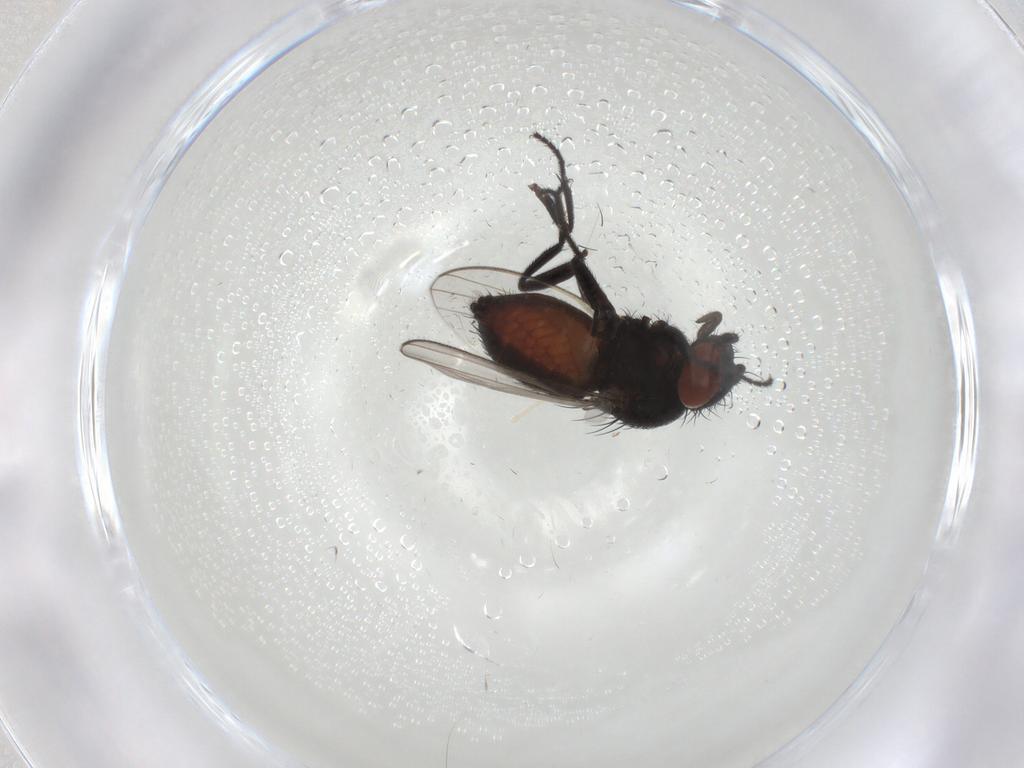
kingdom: Animalia
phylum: Arthropoda
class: Insecta
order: Diptera
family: Milichiidae
